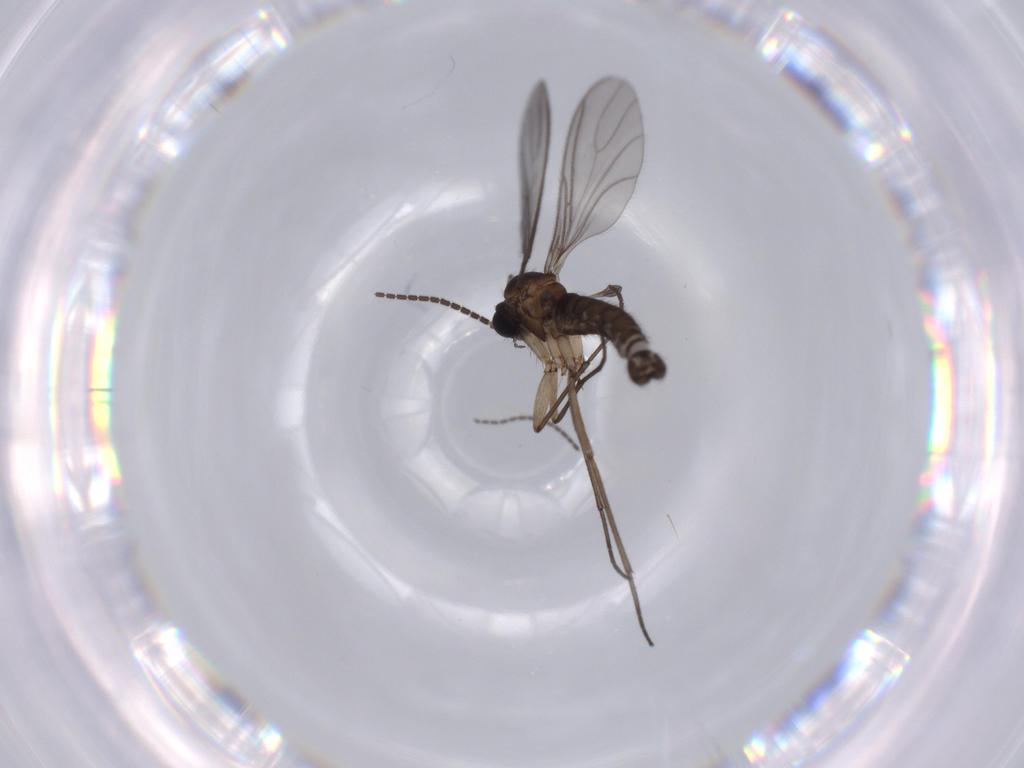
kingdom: Animalia
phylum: Arthropoda
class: Insecta
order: Diptera
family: Sciaridae
